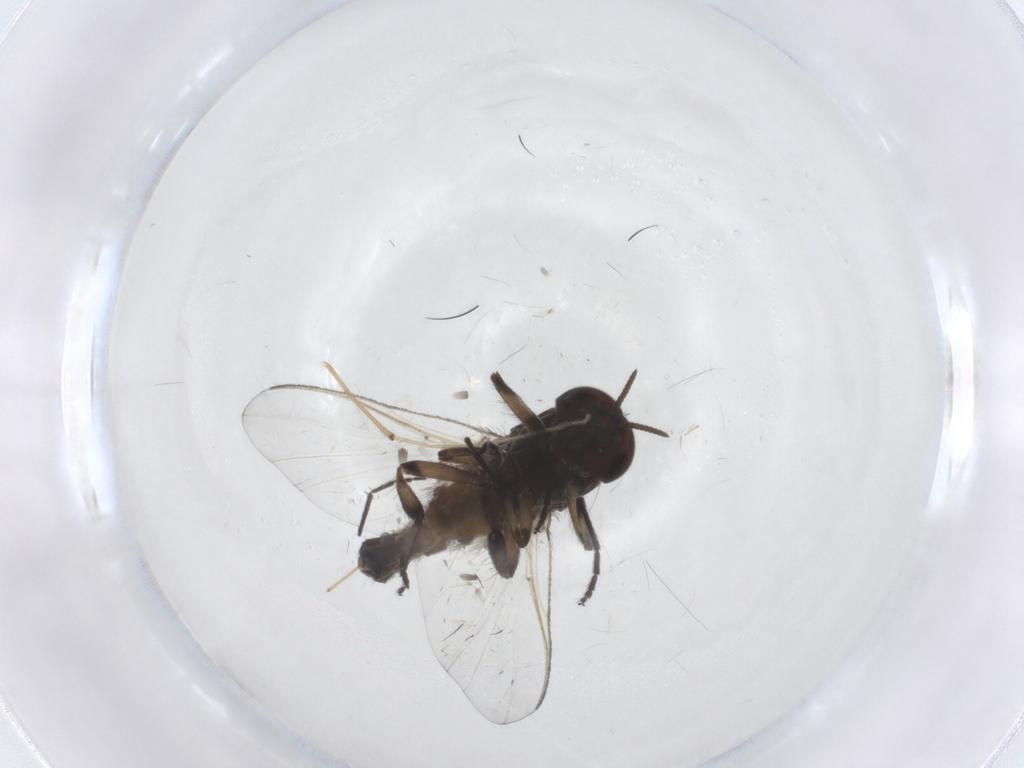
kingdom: Animalia
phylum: Arthropoda
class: Insecta
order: Diptera
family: Simuliidae
